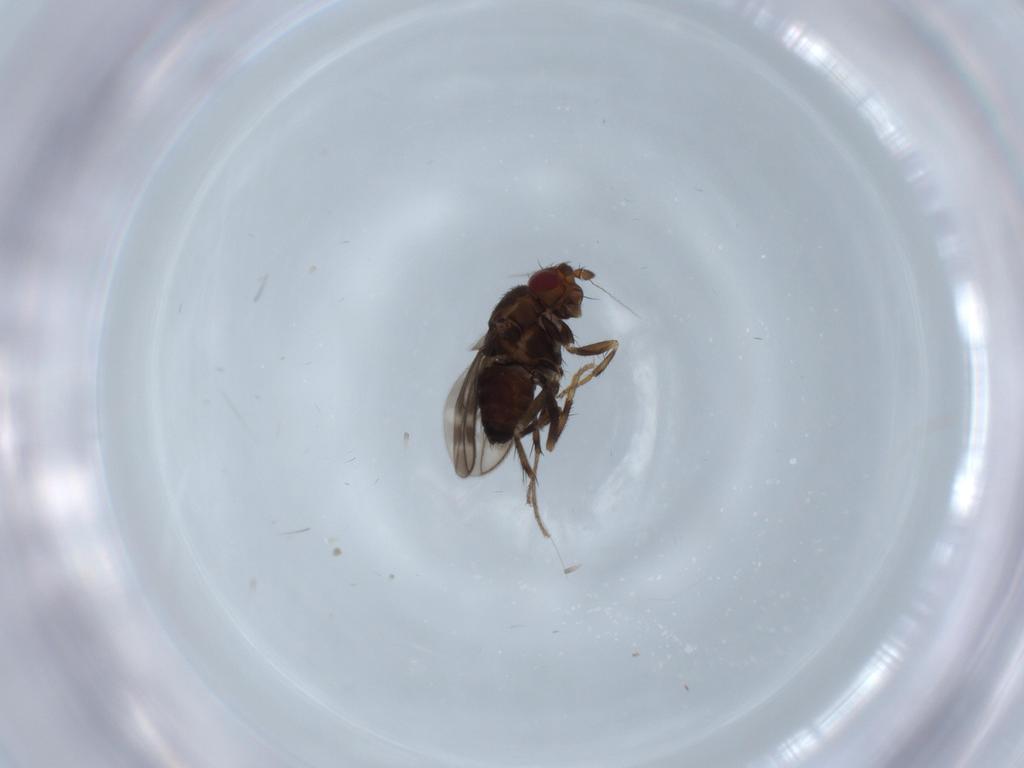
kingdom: Animalia
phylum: Arthropoda
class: Insecta
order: Diptera
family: Sphaeroceridae
